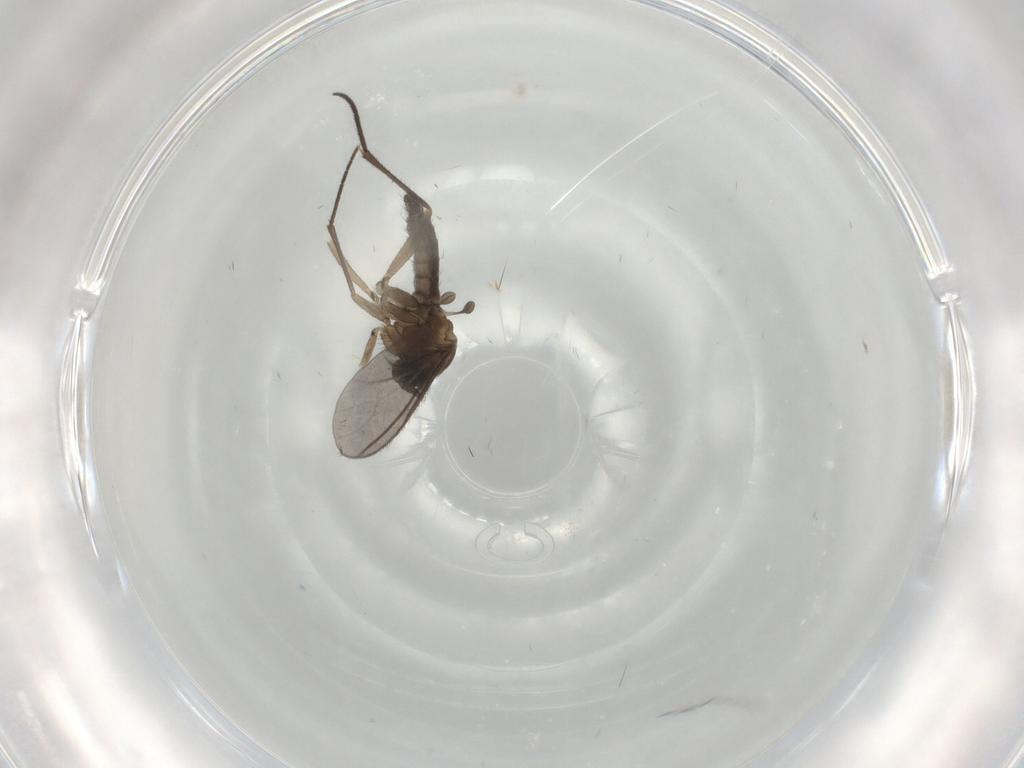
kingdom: Animalia
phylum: Arthropoda
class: Insecta
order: Diptera
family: Sciaridae
